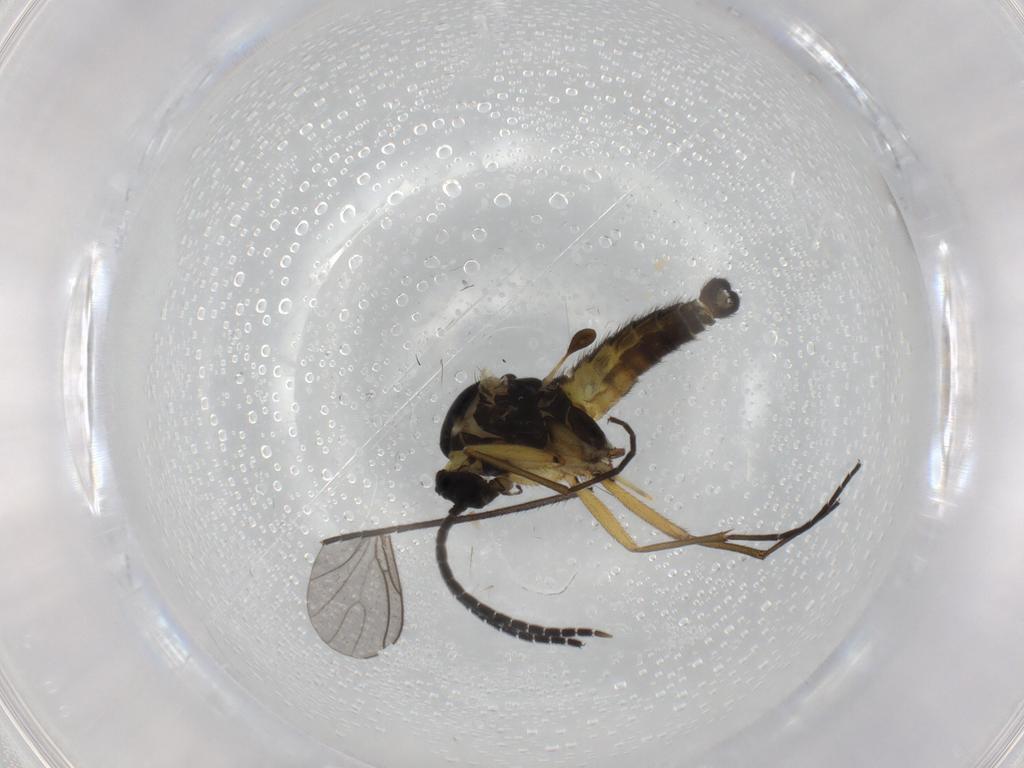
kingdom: Animalia
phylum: Arthropoda
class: Insecta
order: Diptera
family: Sciaridae
